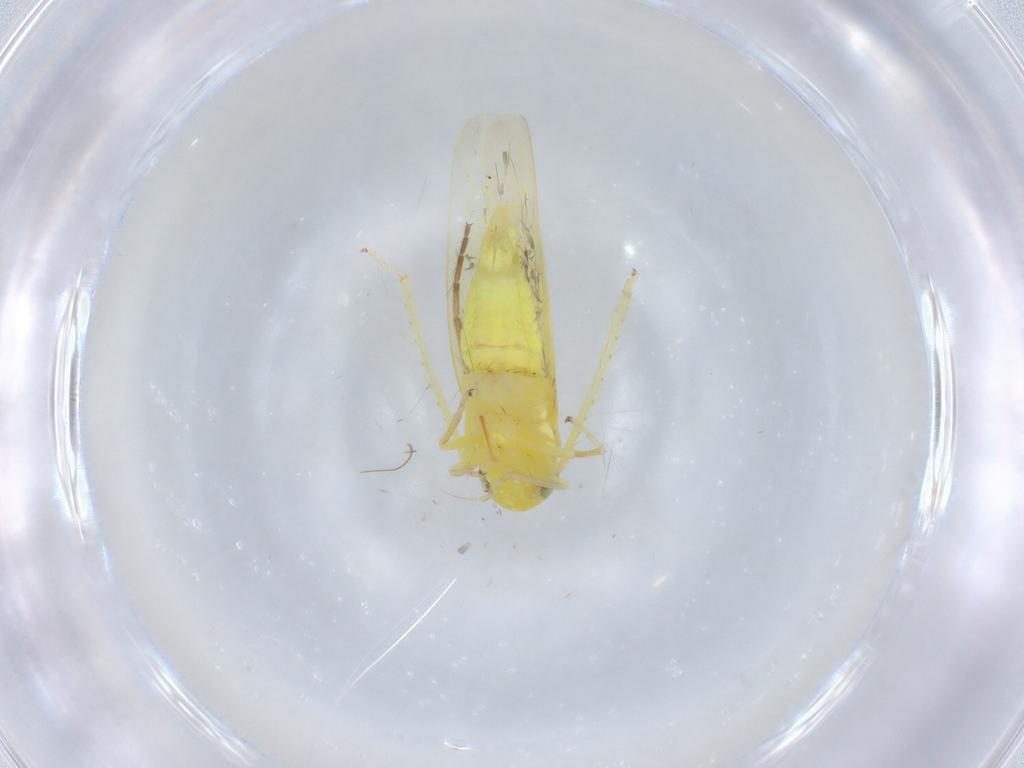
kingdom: Animalia
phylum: Arthropoda
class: Insecta
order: Hemiptera
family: Cicadellidae
